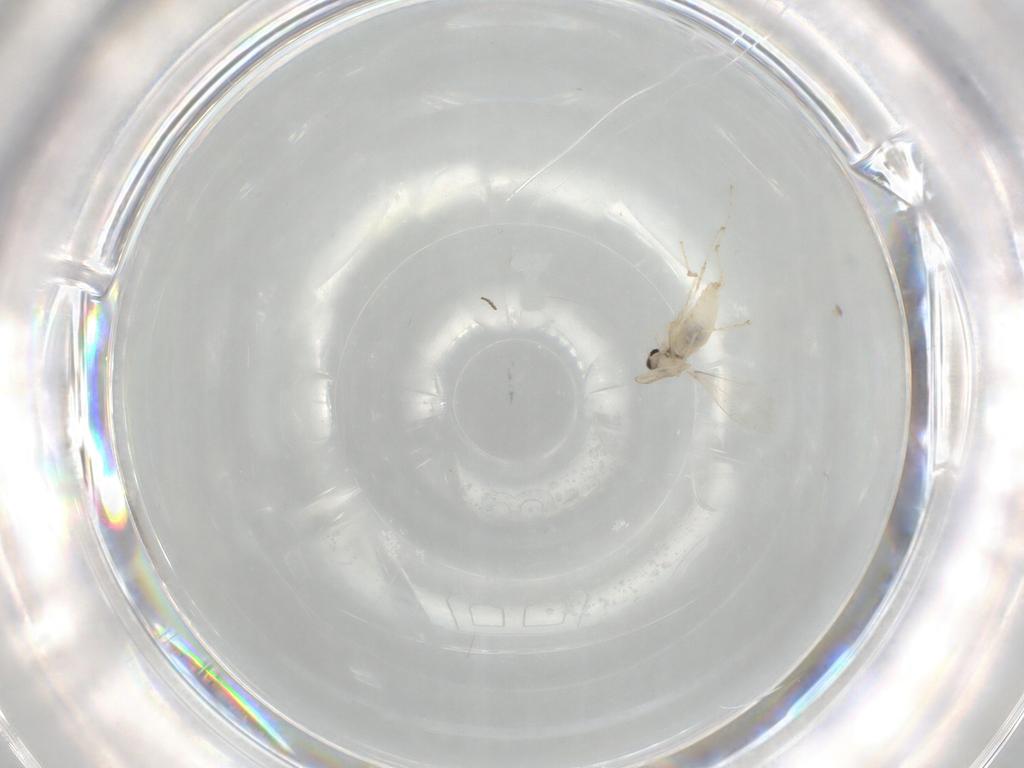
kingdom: Animalia
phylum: Arthropoda
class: Insecta
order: Diptera
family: Cecidomyiidae
